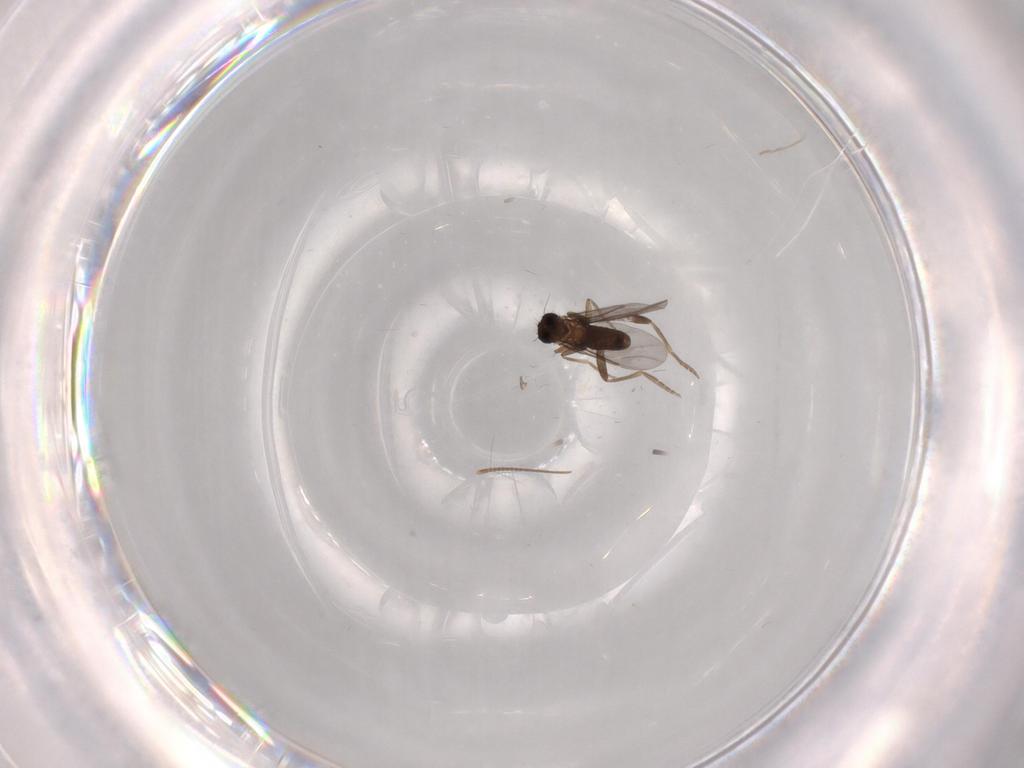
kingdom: Animalia
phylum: Arthropoda
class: Insecta
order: Diptera
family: Chironomidae
